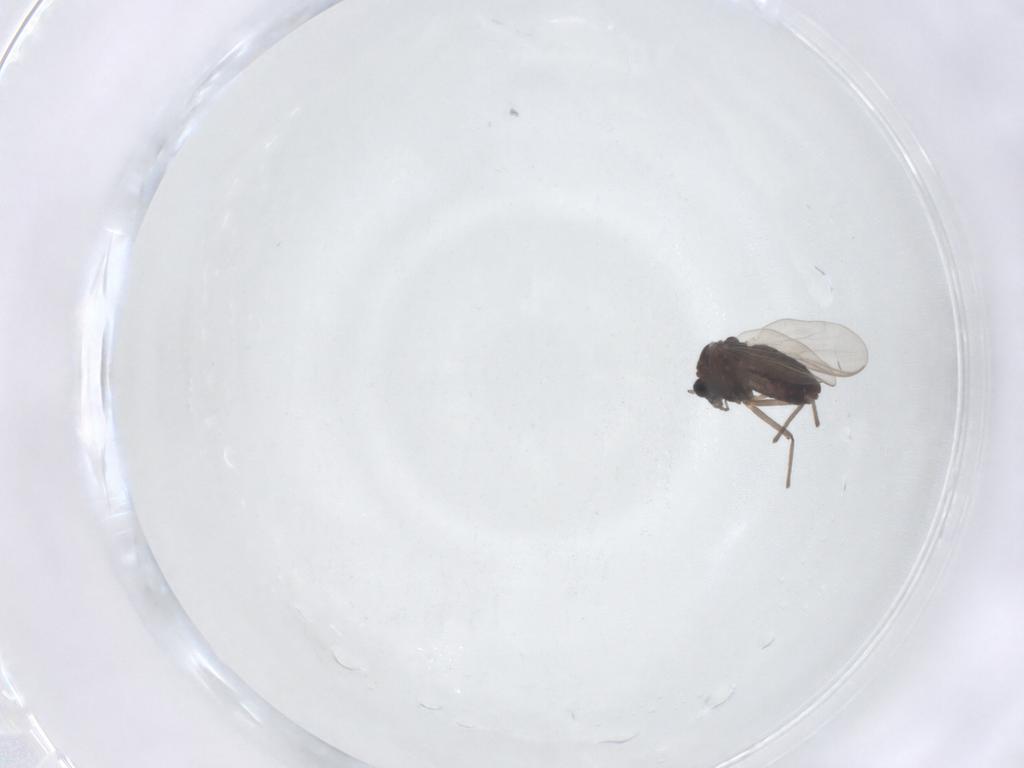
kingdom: Animalia
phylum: Arthropoda
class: Insecta
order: Diptera
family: Chironomidae
